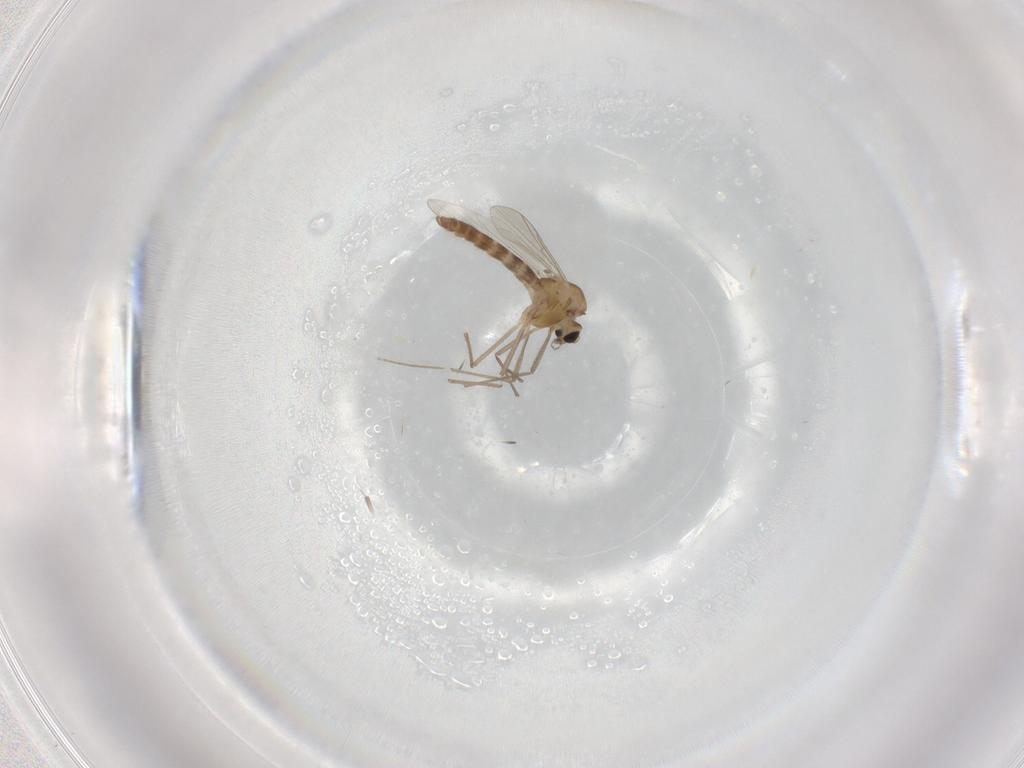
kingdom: Animalia
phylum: Arthropoda
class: Insecta
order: Diptera
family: Chironomidae
